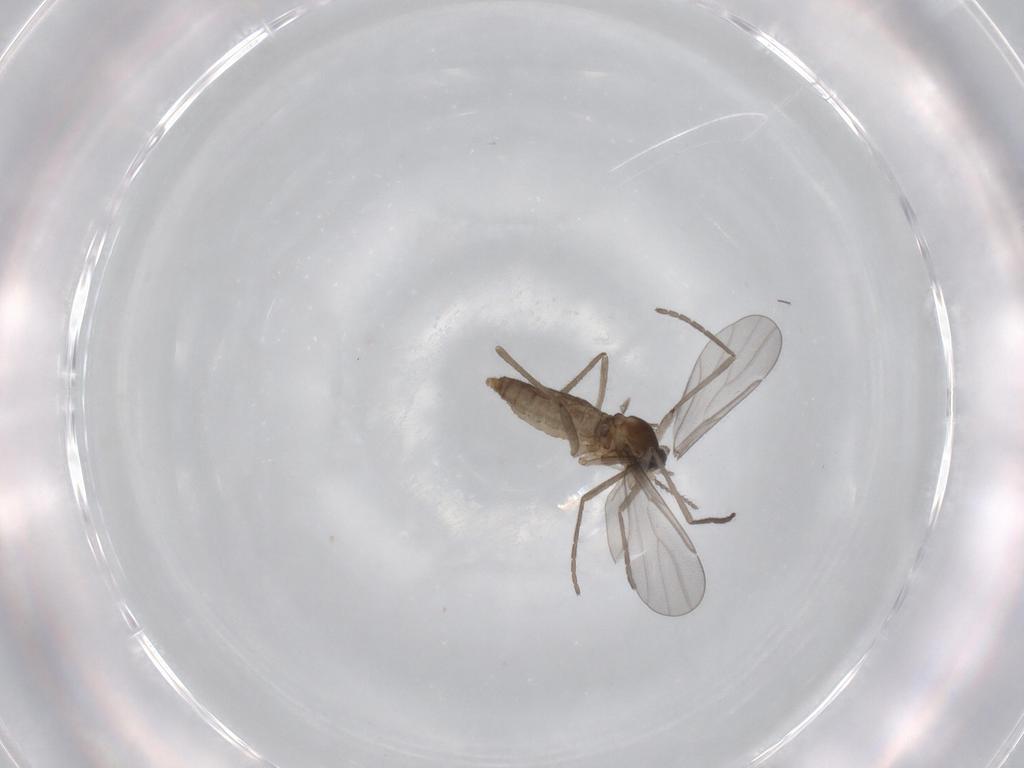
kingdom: Animalia
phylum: Arthropoda
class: Insecta
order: Diptera
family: Cecidomyiidae
